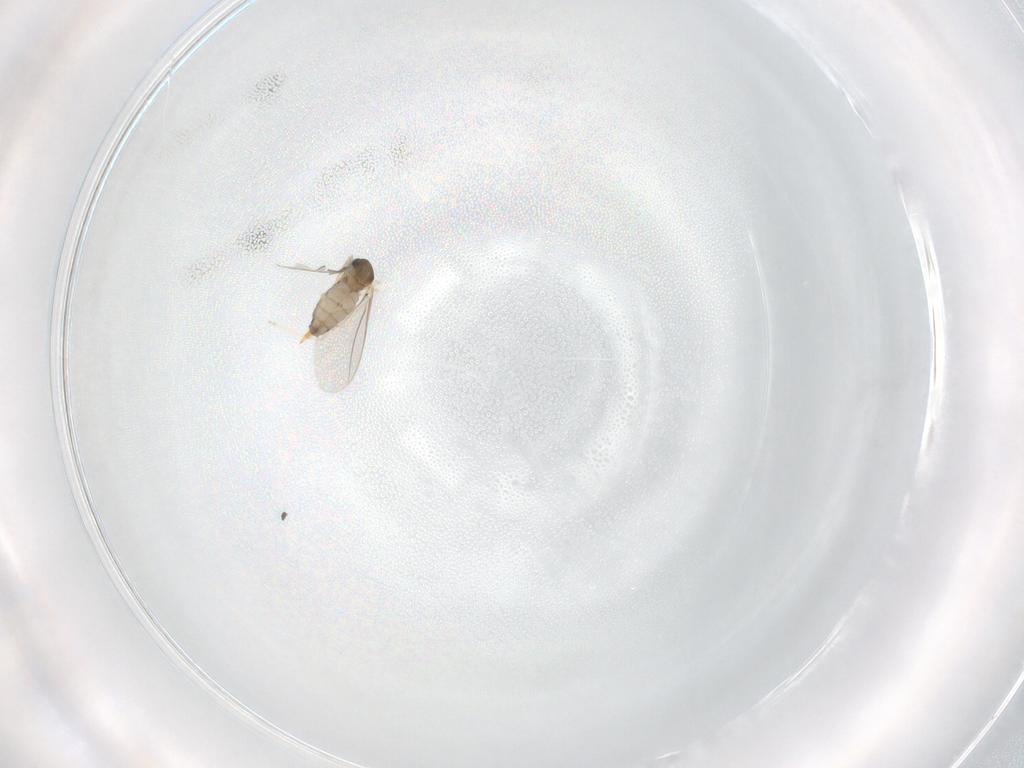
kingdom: Animalia
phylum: Arthropoda
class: Insecta
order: Diptera
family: Cecidomyiidae
